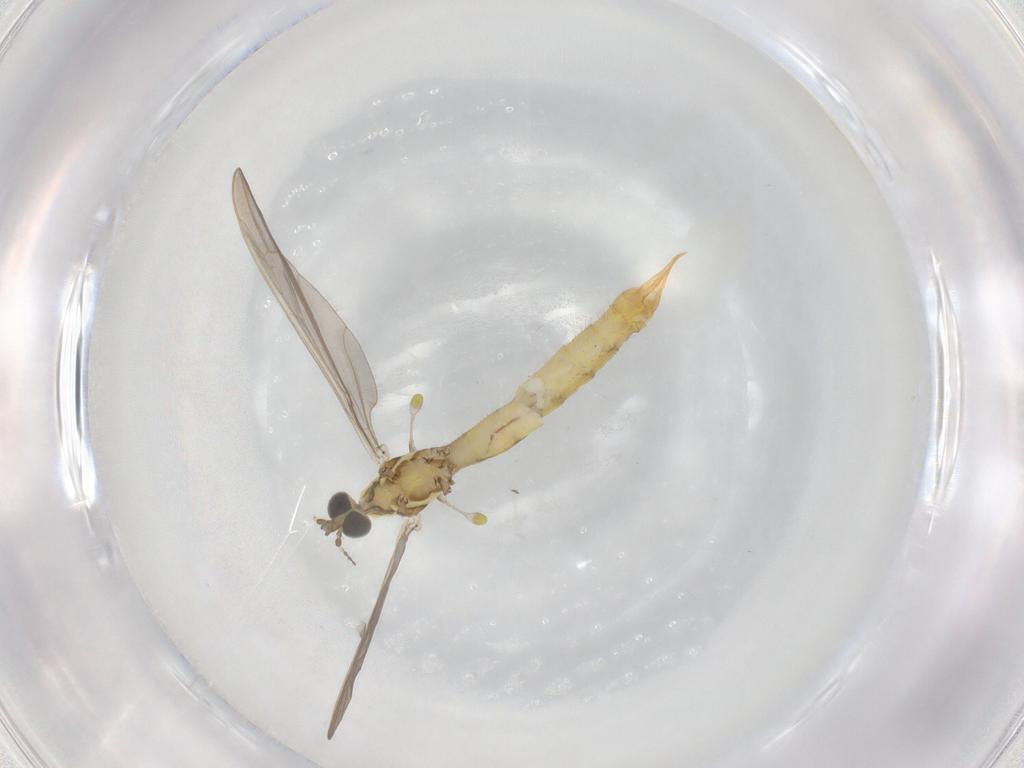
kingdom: Animalia
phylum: Arthropoda
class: Insecta
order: Diptera
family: Limoniidae
